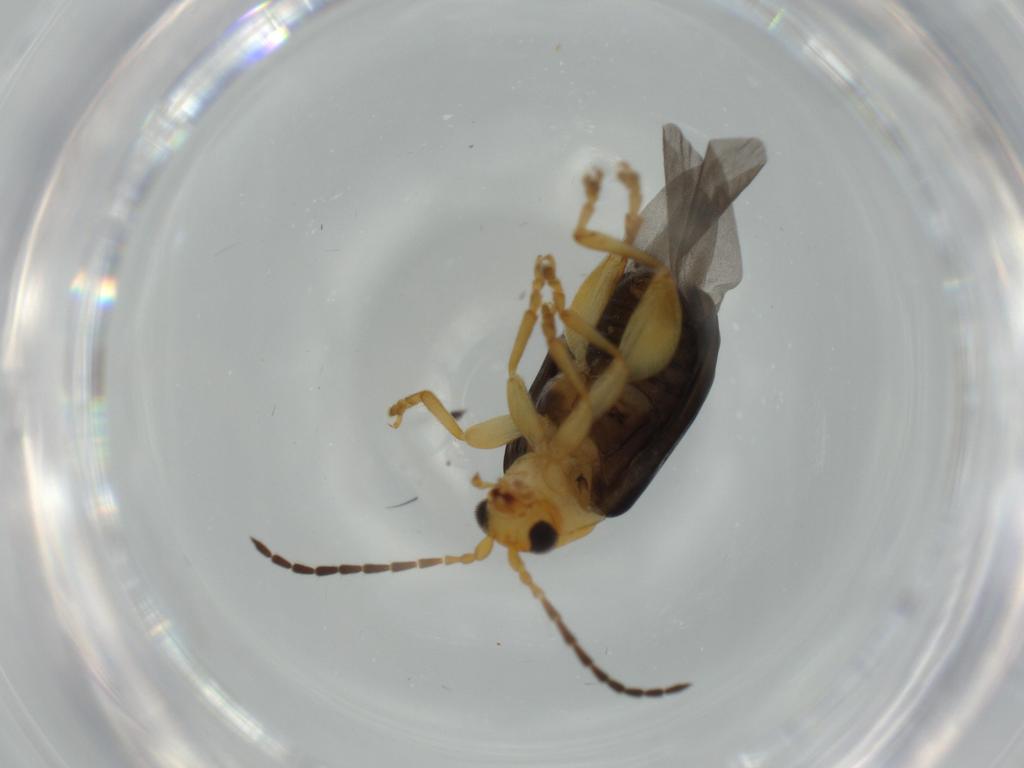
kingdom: Animalia
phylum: Arthropoda
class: Insecta
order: Coleoptera
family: Chrysomelidae
